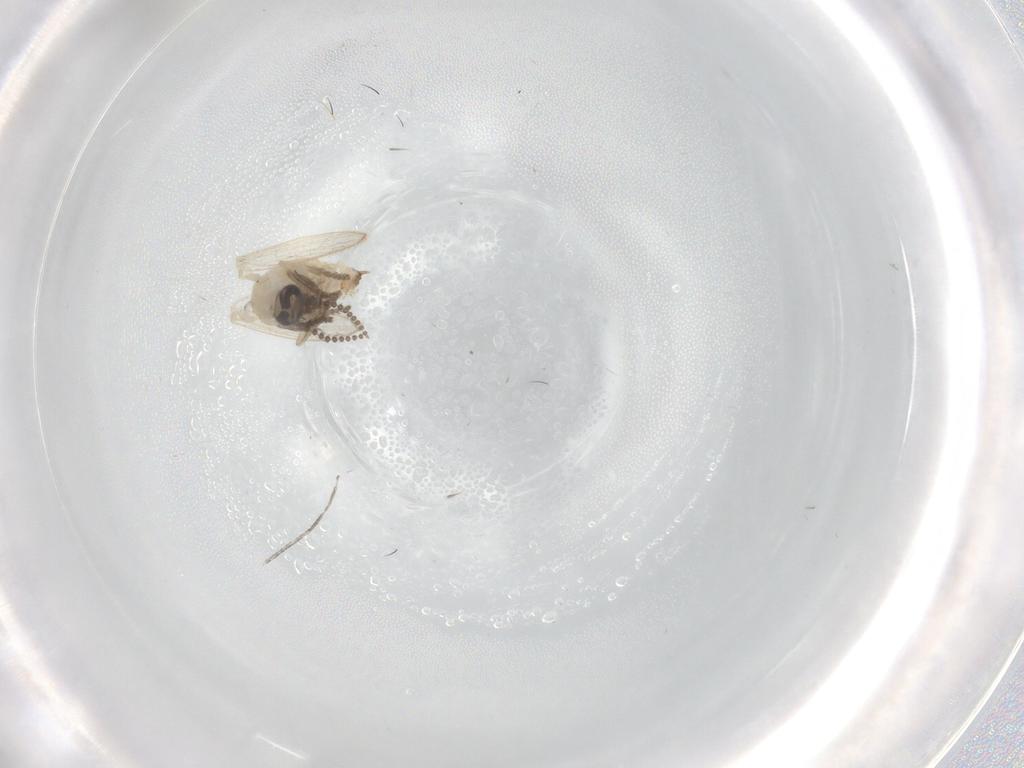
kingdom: Animalia
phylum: Arthropoda
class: Insecta
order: Diptera
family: Psychodidae
